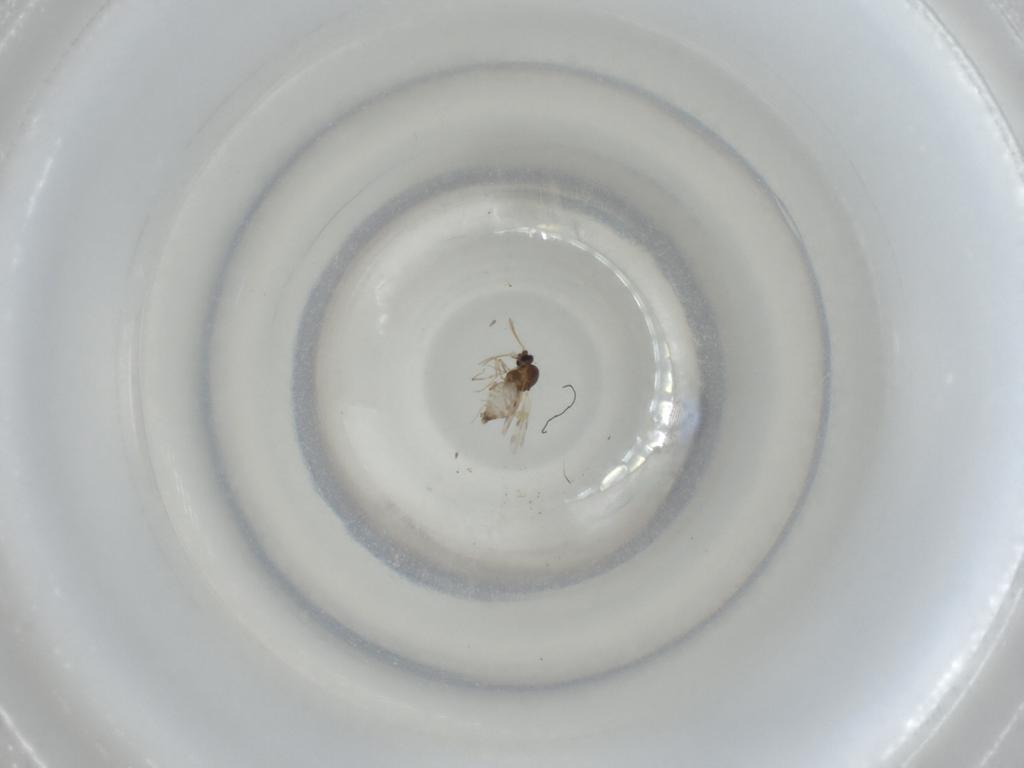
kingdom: Animalia
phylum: Arthropoda
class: Insecta
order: Diptera
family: Ceratopogonidae
